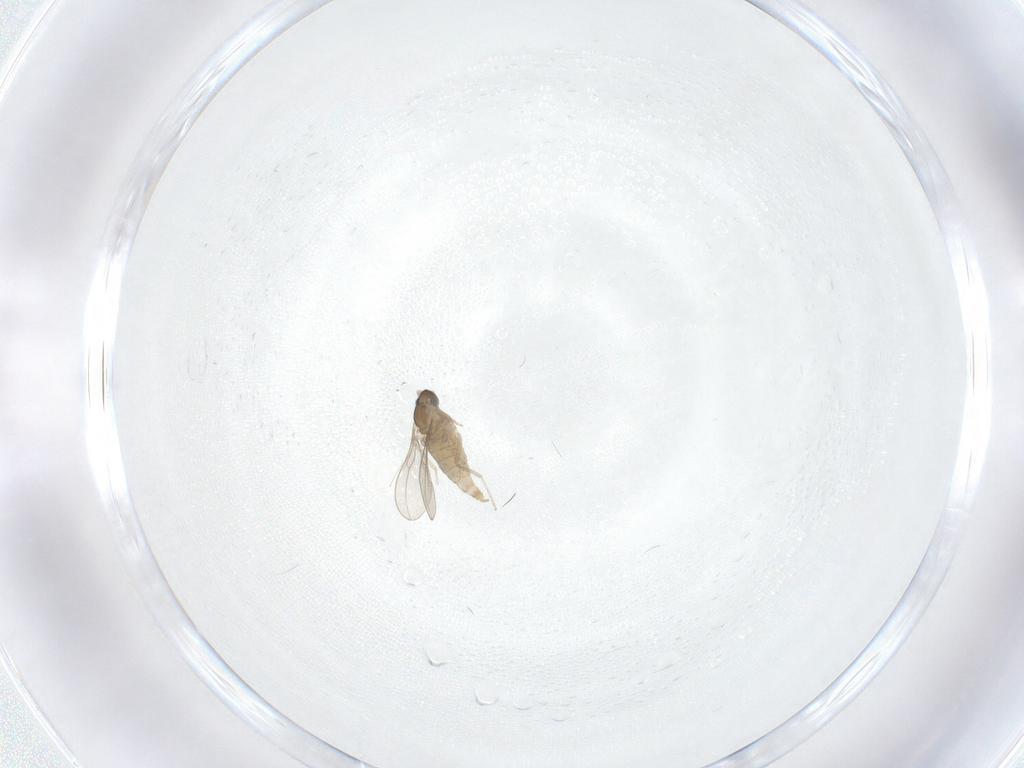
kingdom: Animalia
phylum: Arthropoda
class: Insecta
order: Diptera
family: Cecidomyiidae
